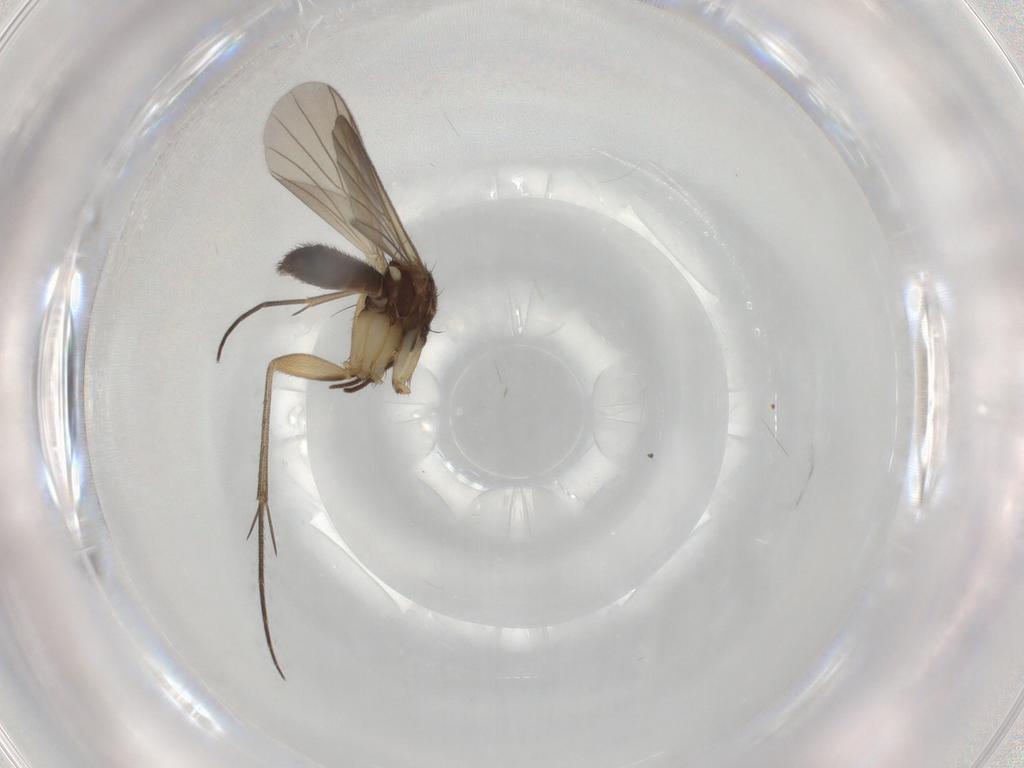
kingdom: Animalia
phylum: Arthropoda
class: Insecta
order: Diptera
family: Mycetophilidae
